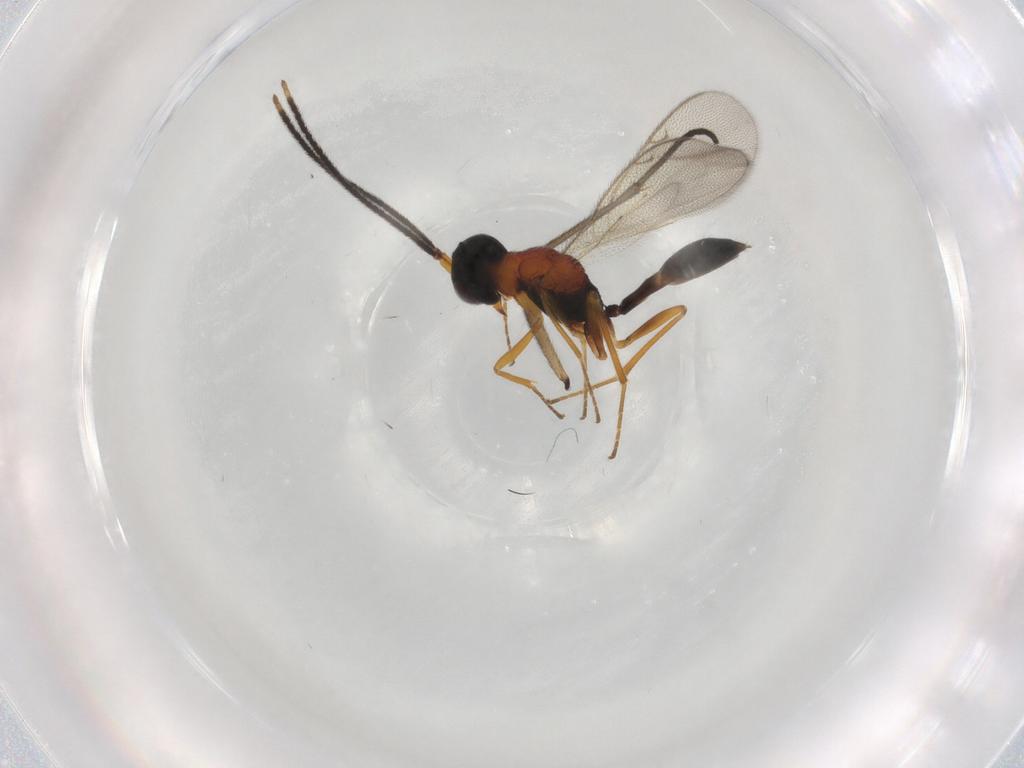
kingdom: Animalia
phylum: Arthropoda
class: Insecta
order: Hymenoptera
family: Pteromalidae
